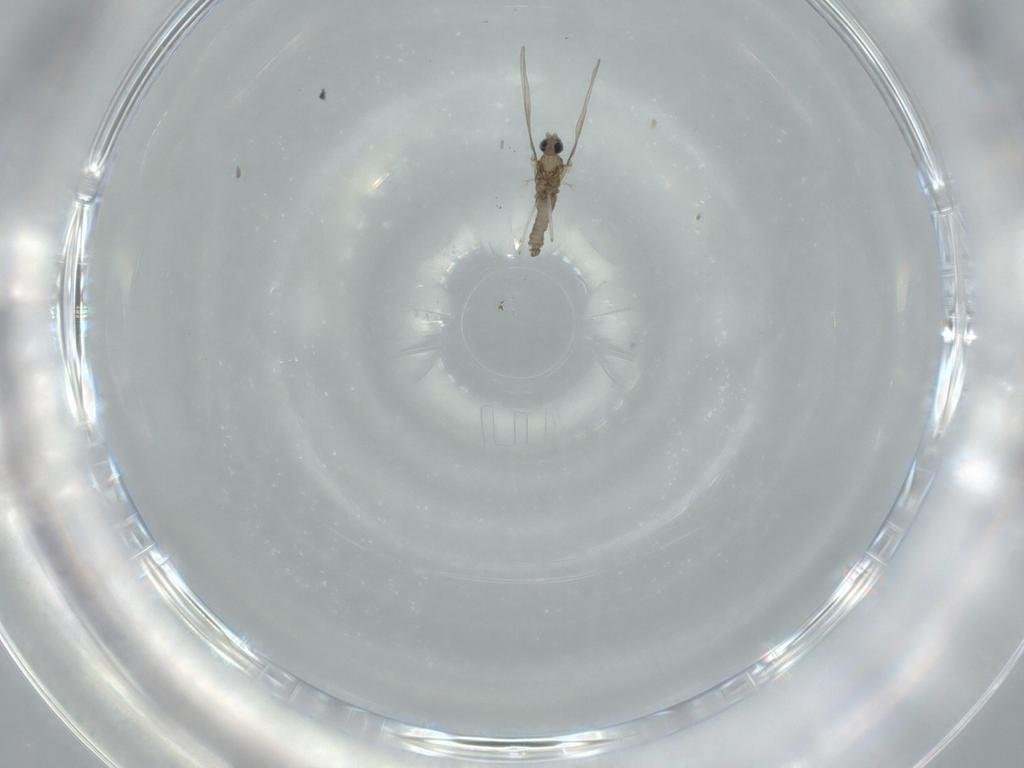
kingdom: Animalia
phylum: Arthropoda
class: Insecta
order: Diptera
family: Cecidomyiidae
